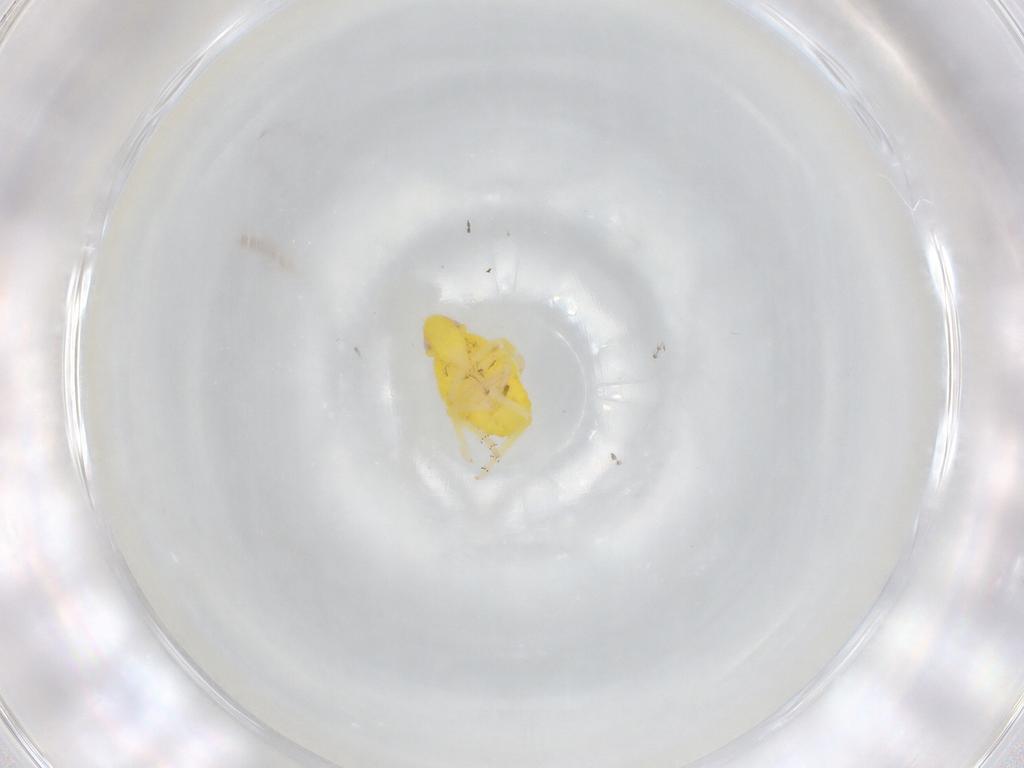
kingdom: Animalia
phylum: Arthropoda
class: Insecta
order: Hemiptera
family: Tropiduchidae
